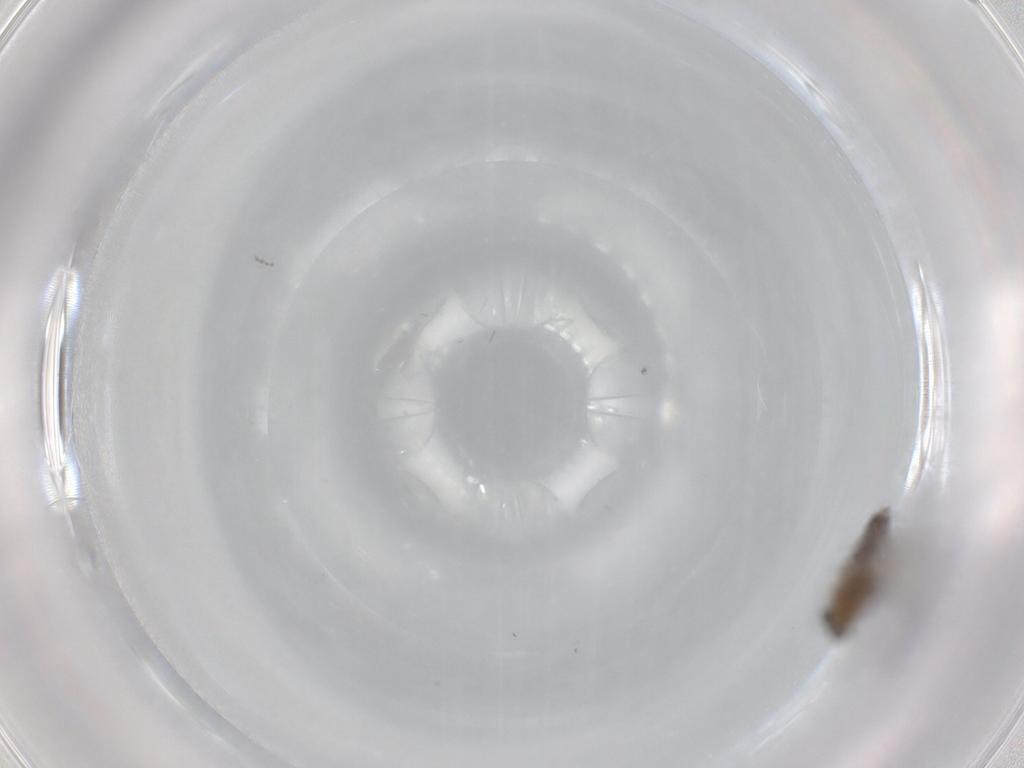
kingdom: Animalia
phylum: Arthropoda
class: Insecta
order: Diptera
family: Psychodidae
